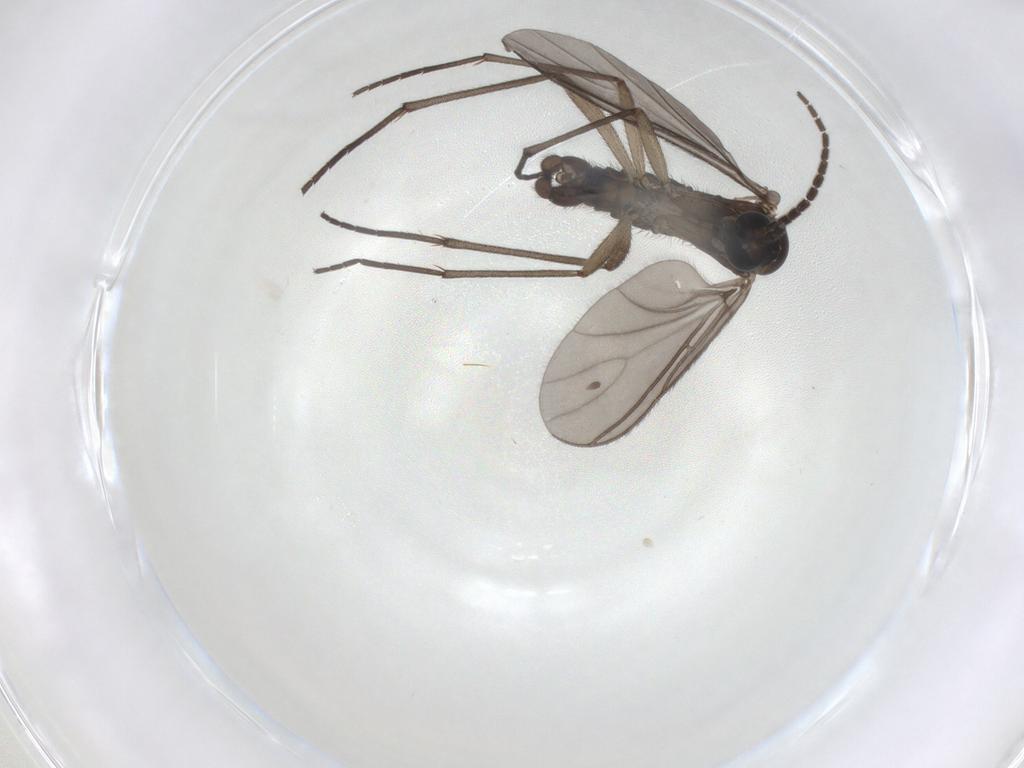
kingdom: Animalia
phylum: Arthropoda
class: Insecta
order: Diptera
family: Sciaridae
